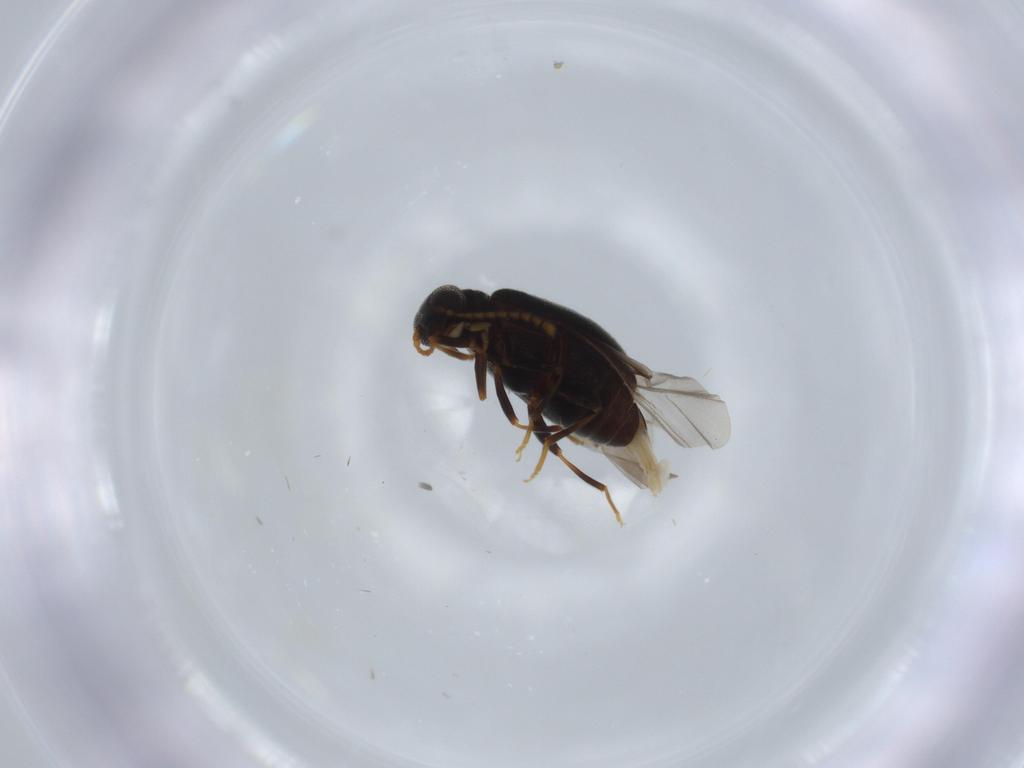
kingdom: Animalia
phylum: Arthropoda
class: Insecta
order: Coleoptera
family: Aderidae
